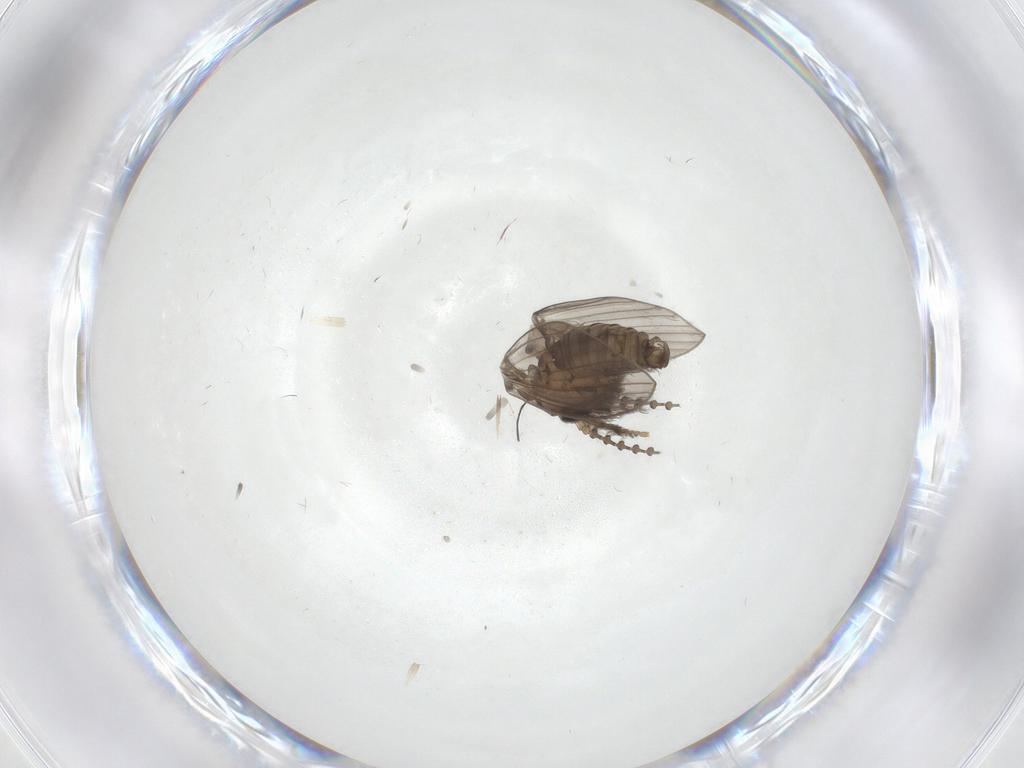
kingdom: Animalia
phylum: Arthropoda
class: Insecta
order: Diptera
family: Psychodidae
